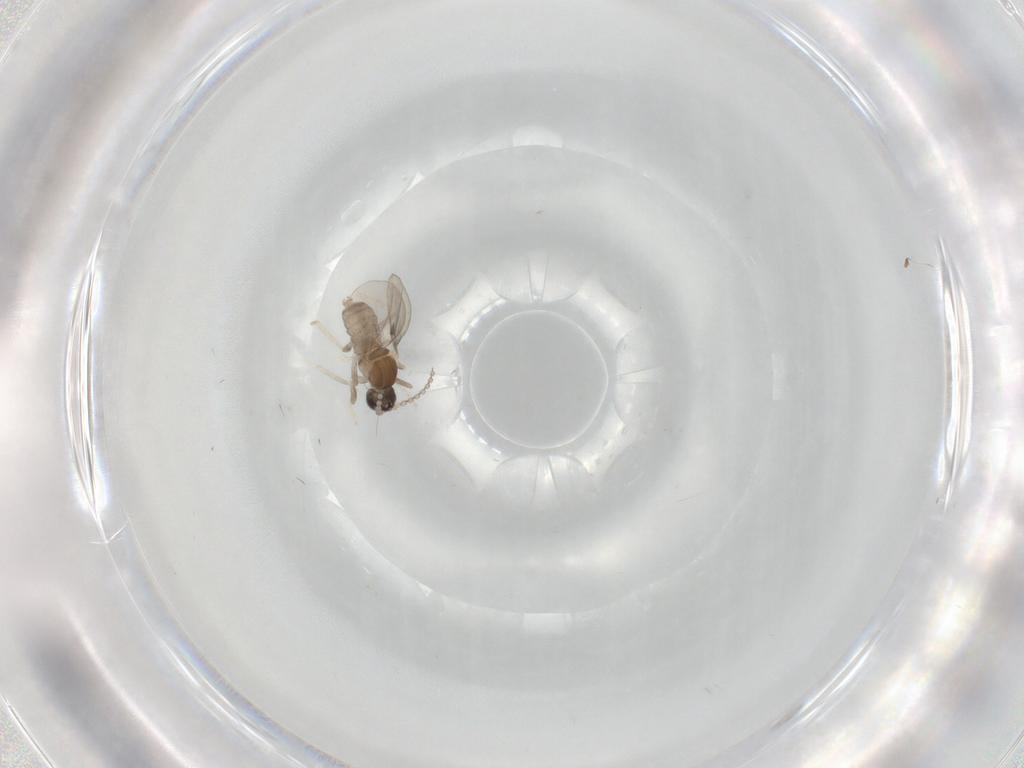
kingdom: Animalia
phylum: Arthropoda
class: Insecta
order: Diptera
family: Cecidomyiidae
